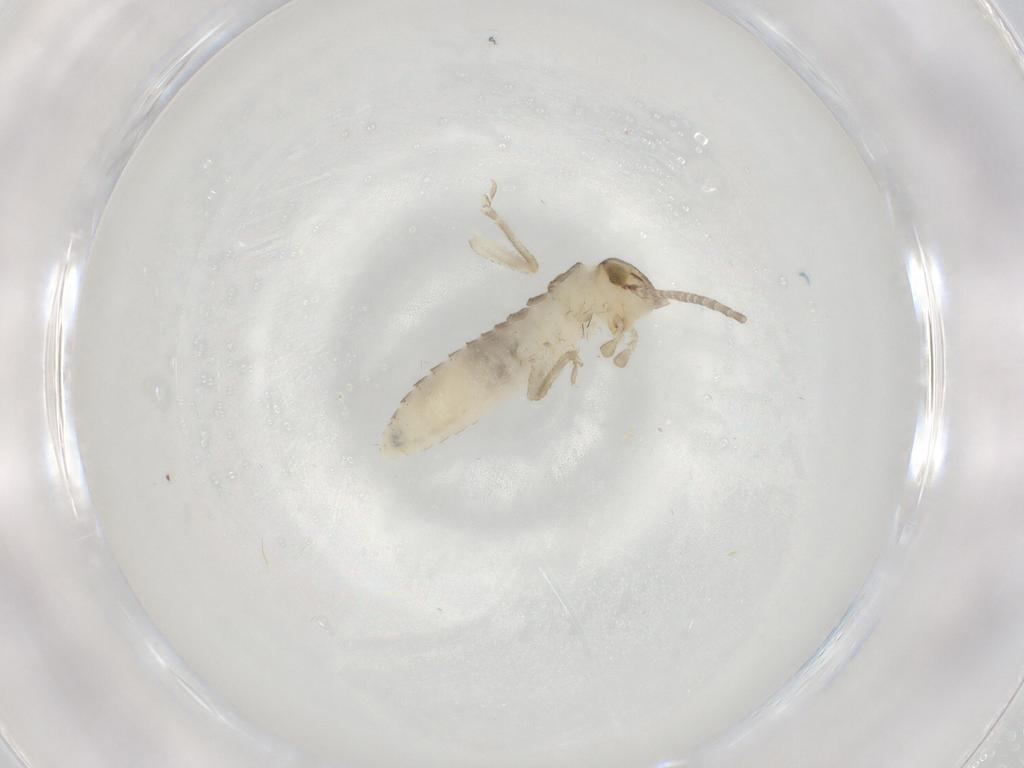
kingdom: Animalia
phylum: Arthropoda
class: Insecta
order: Orthoptera
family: Gryllidae
